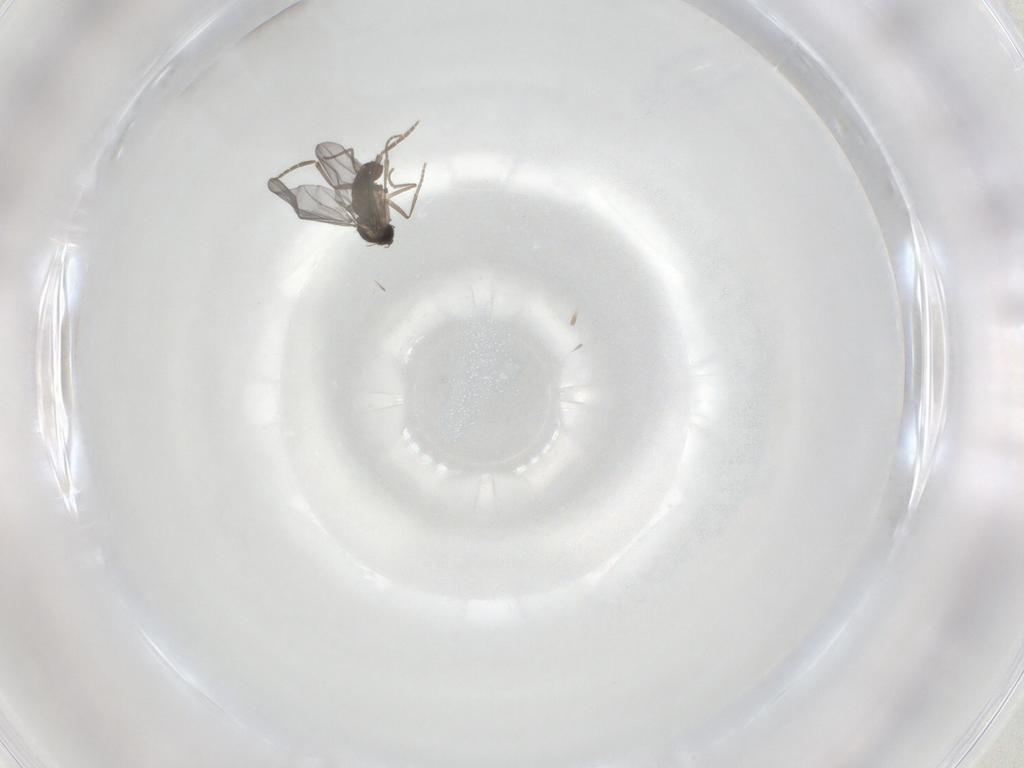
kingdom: Animalia
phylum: Arthropoda
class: Insecta
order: Diptera
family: Phoridae
